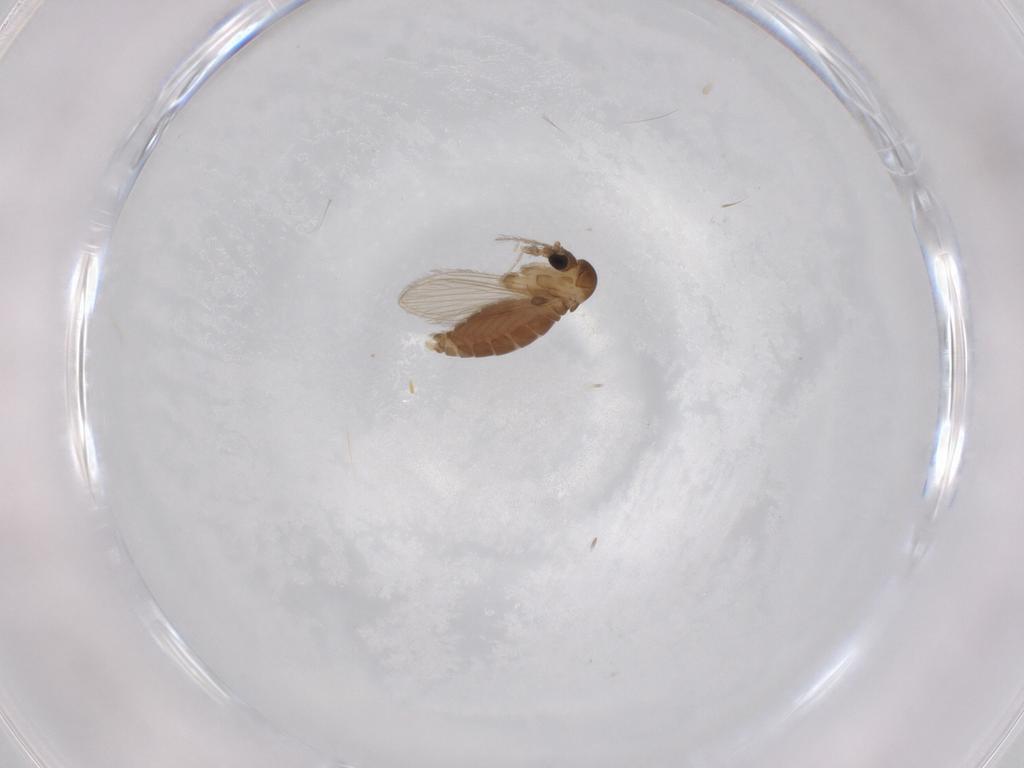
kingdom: Animalia
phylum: Arthropoda
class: Insecta
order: Diptera
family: Psychodidae
